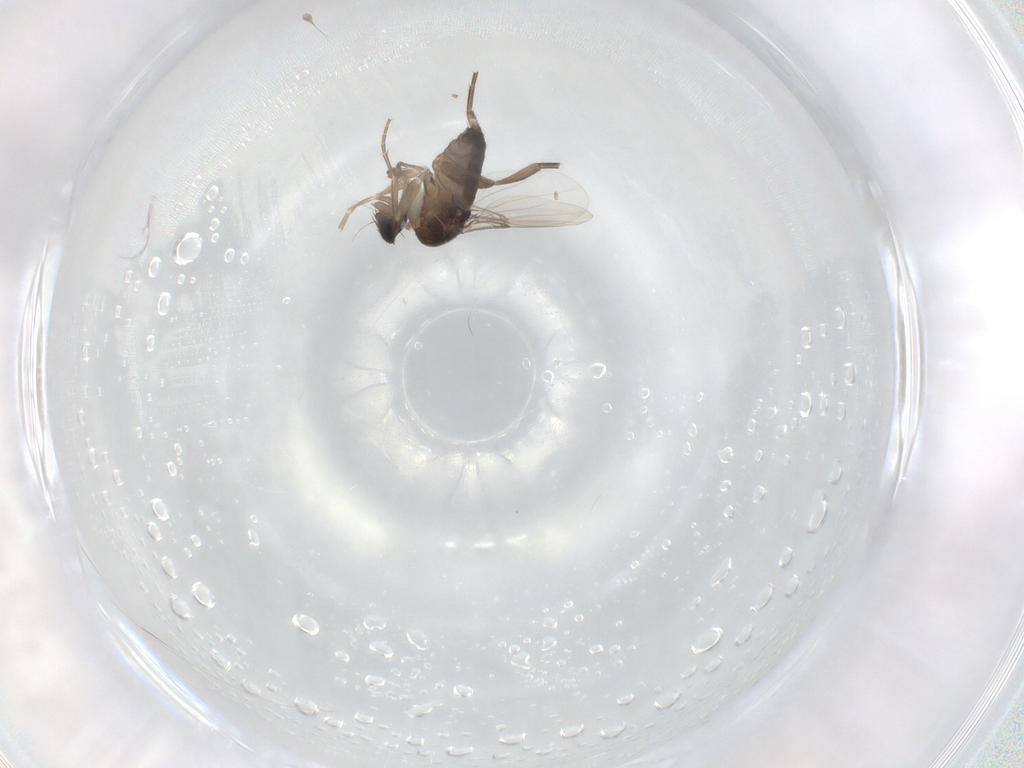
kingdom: Animalia
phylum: Arthropoda
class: Insecta
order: Diptera
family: Phoridae
